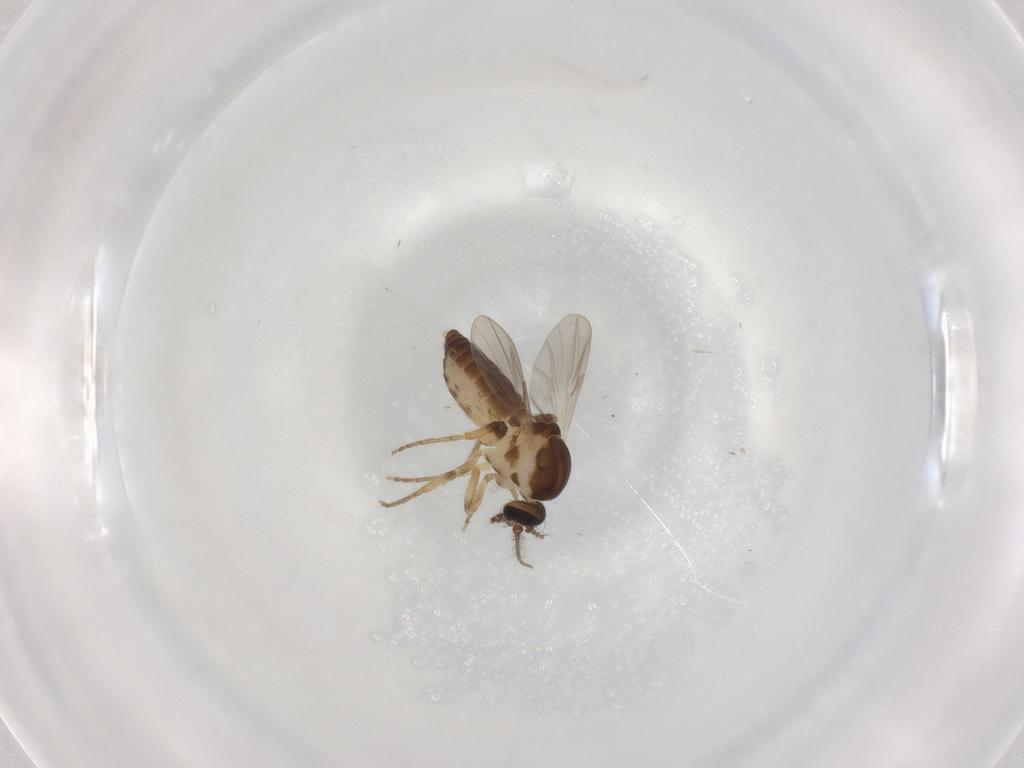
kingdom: Animalia
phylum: Arthropoda
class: Insecta
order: Diptera
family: Ceratopogonidae
